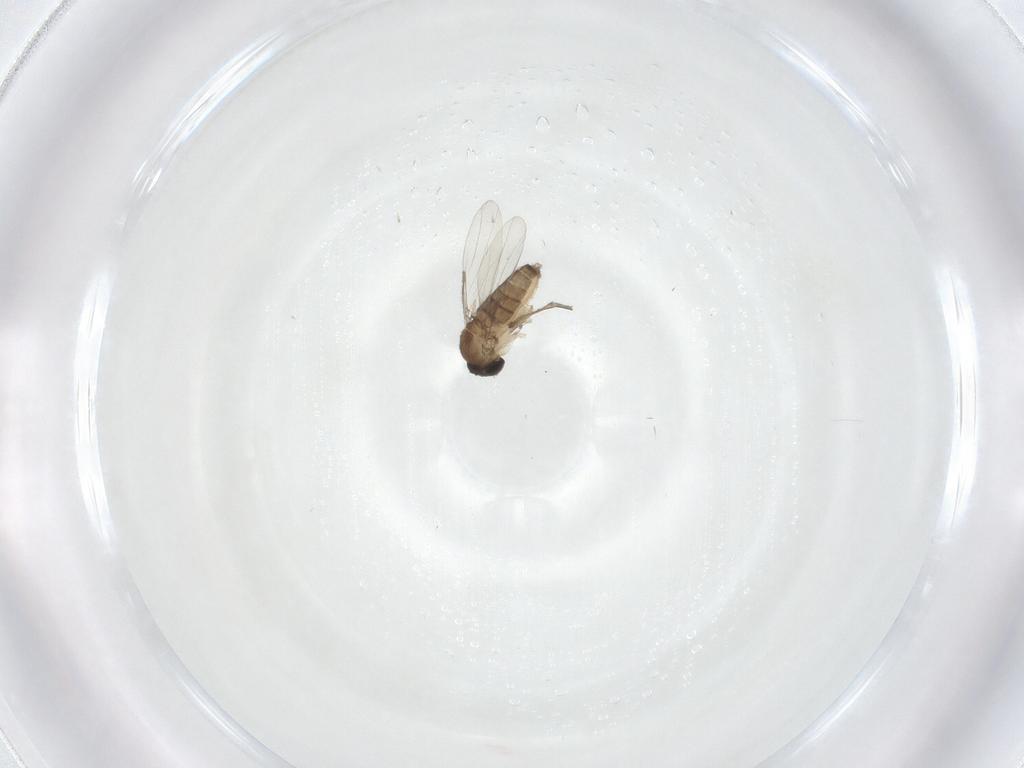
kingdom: Animalia
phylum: Arthropoda
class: Insecta
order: Diptera
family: Phoridae
